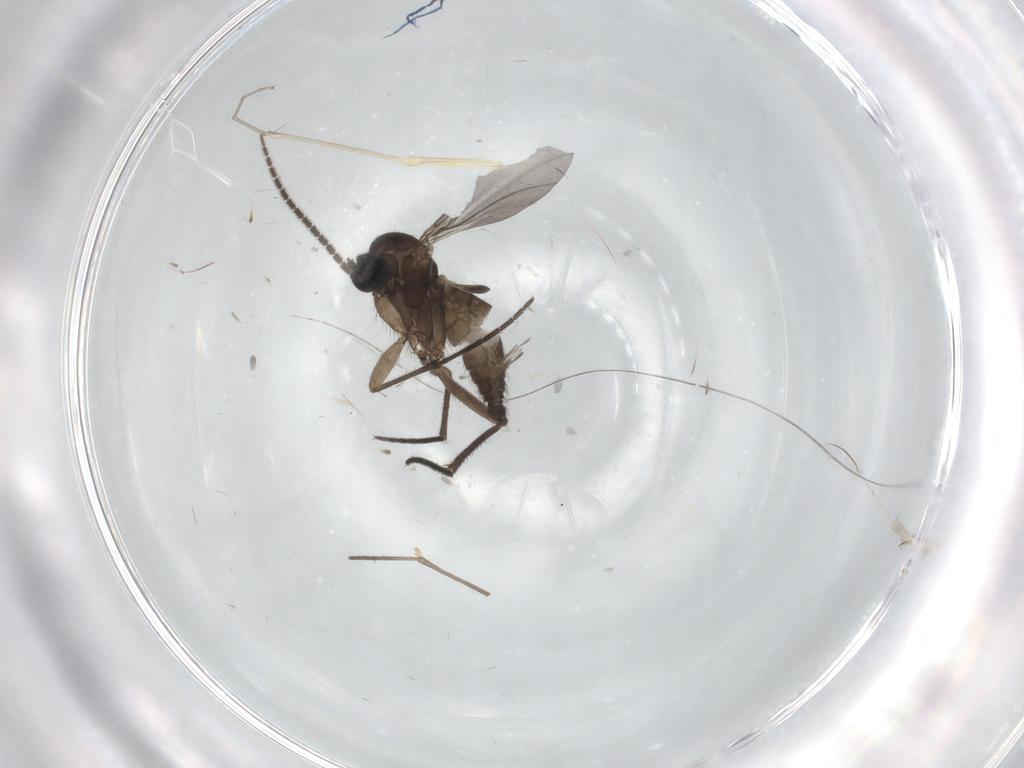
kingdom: Animalia
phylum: Arthropoda
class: Insecta
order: Diptera
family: Sciaridae
